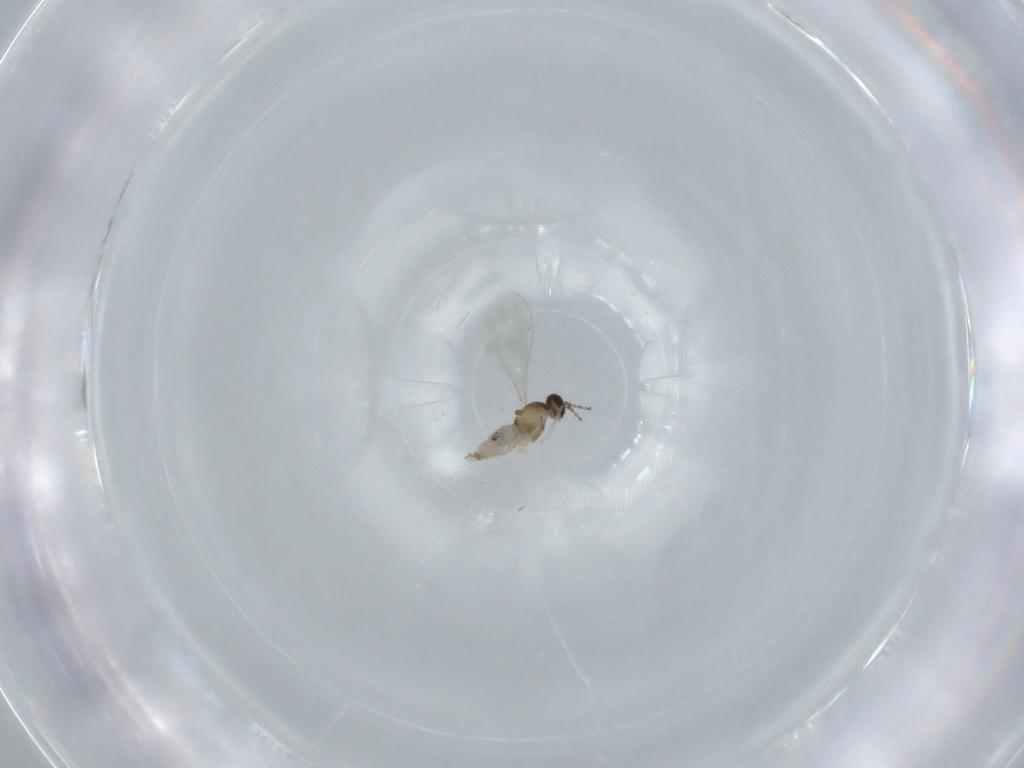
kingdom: Animalia
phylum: Arthropoda
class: Insecta
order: Diptera
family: Cecidomyiidae
